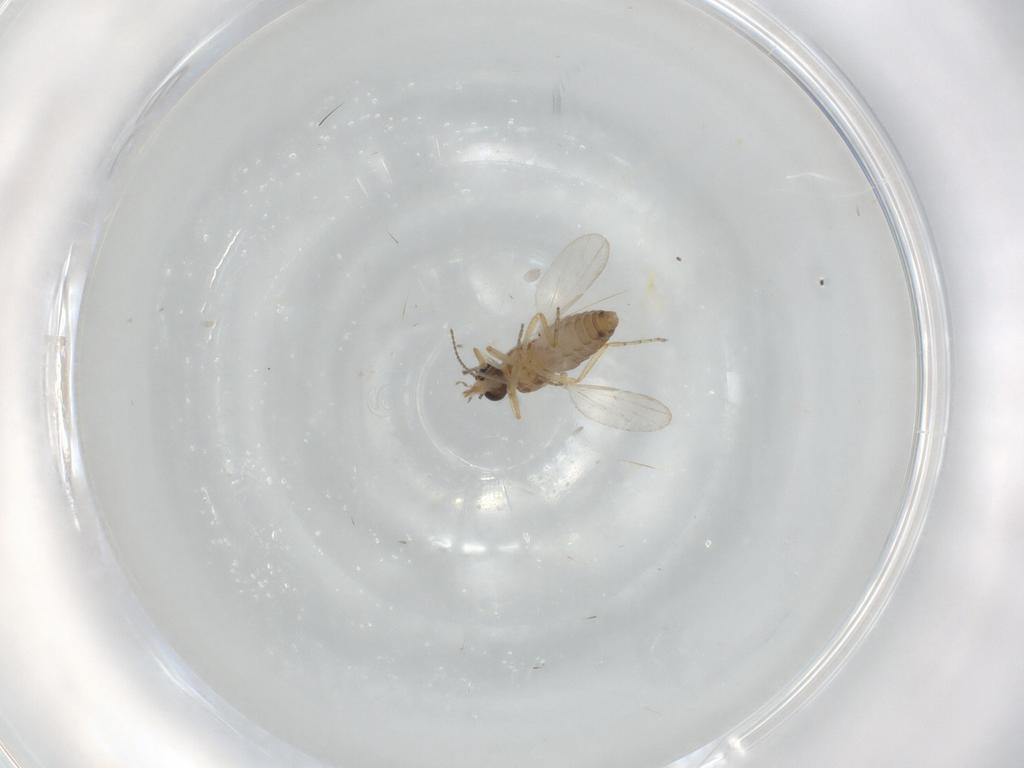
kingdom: Animalia
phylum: Arthropoda
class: Insecta
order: Diptera
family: Ceratopogonidae
